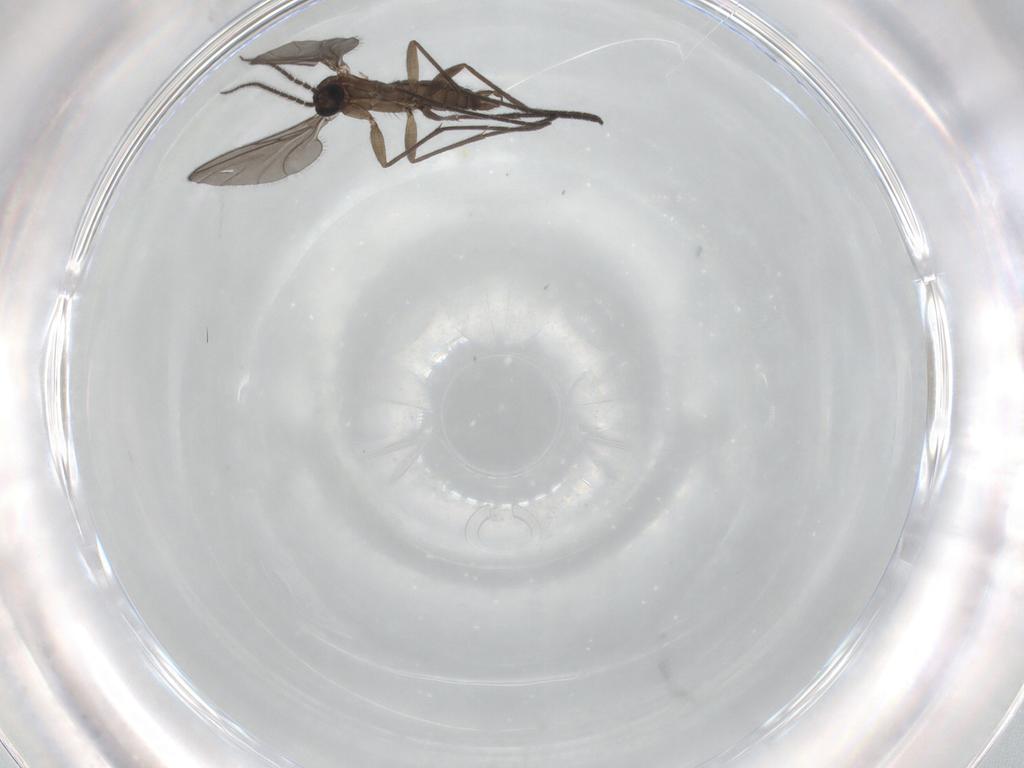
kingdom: Animalia
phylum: Arthropoda
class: Insecta
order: Diptera
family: Sciaridae
